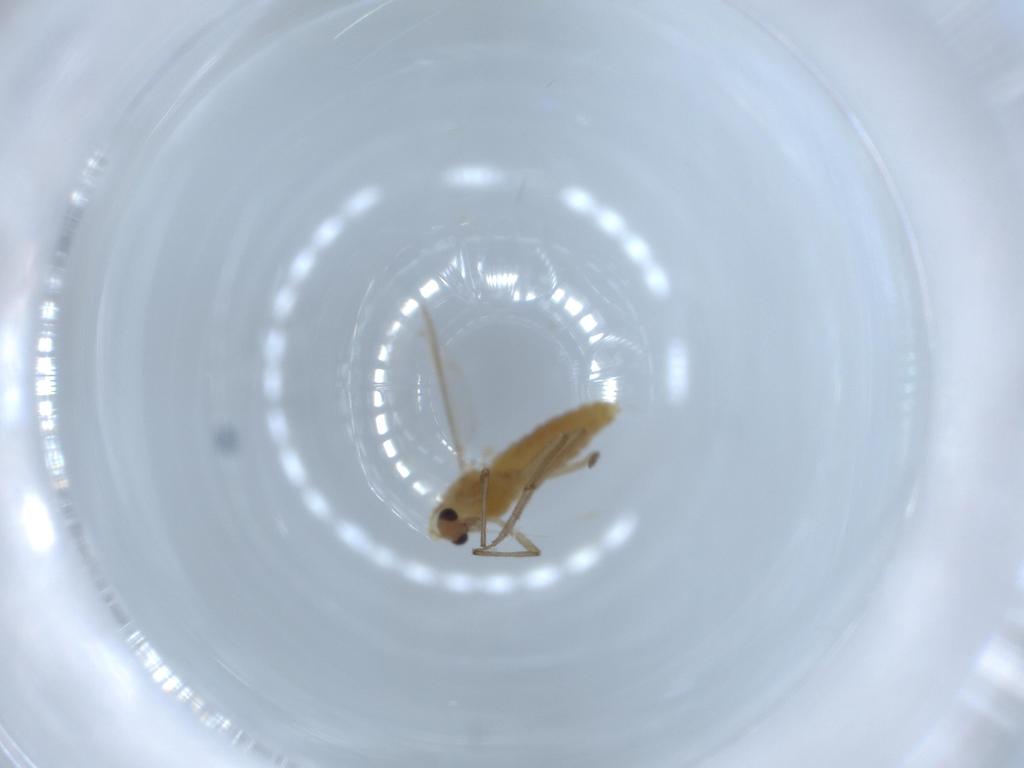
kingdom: Animalia
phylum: Arthropoda
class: Insecta
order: Diptera
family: Chironomidae
